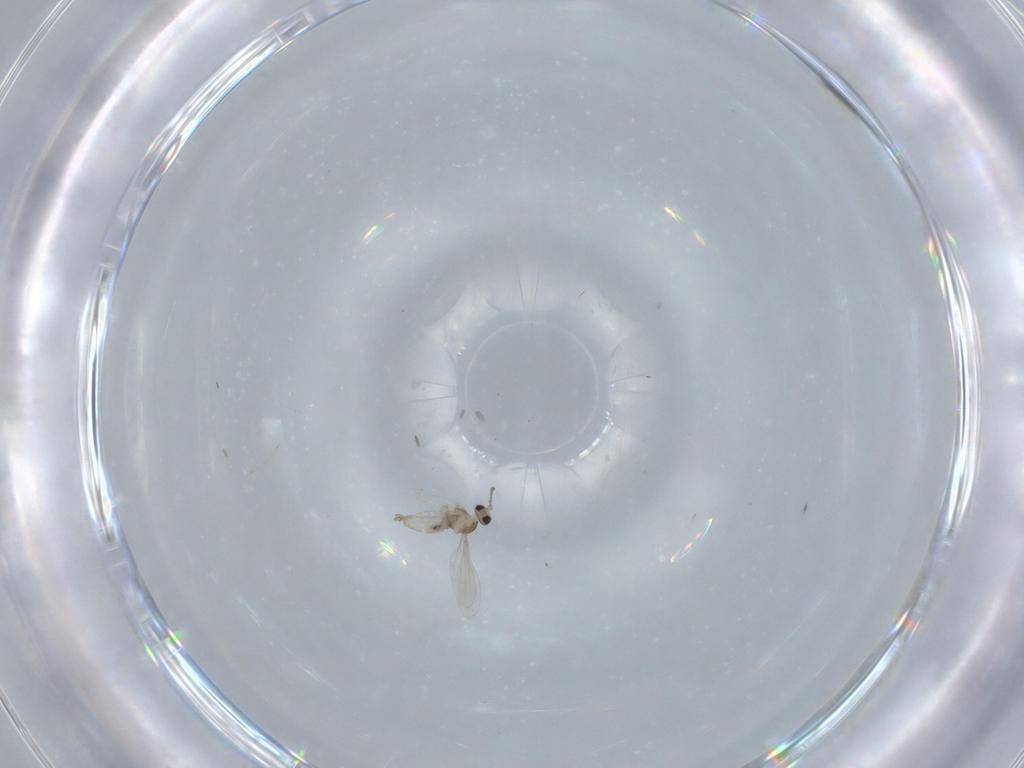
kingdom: Animalia
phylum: Arthropoda
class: Insecta
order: Diptera
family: Cecidomyiidae
